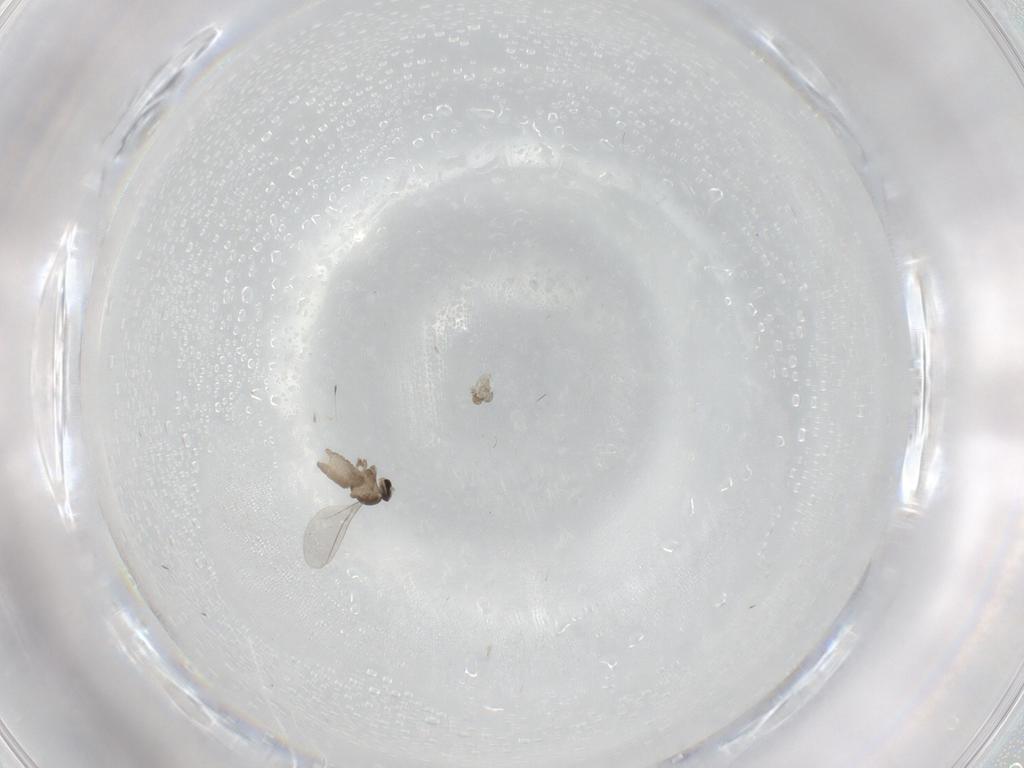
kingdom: Animalia
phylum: Arthropoda
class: Insecta
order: Diptera
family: Cecidomyiidae
